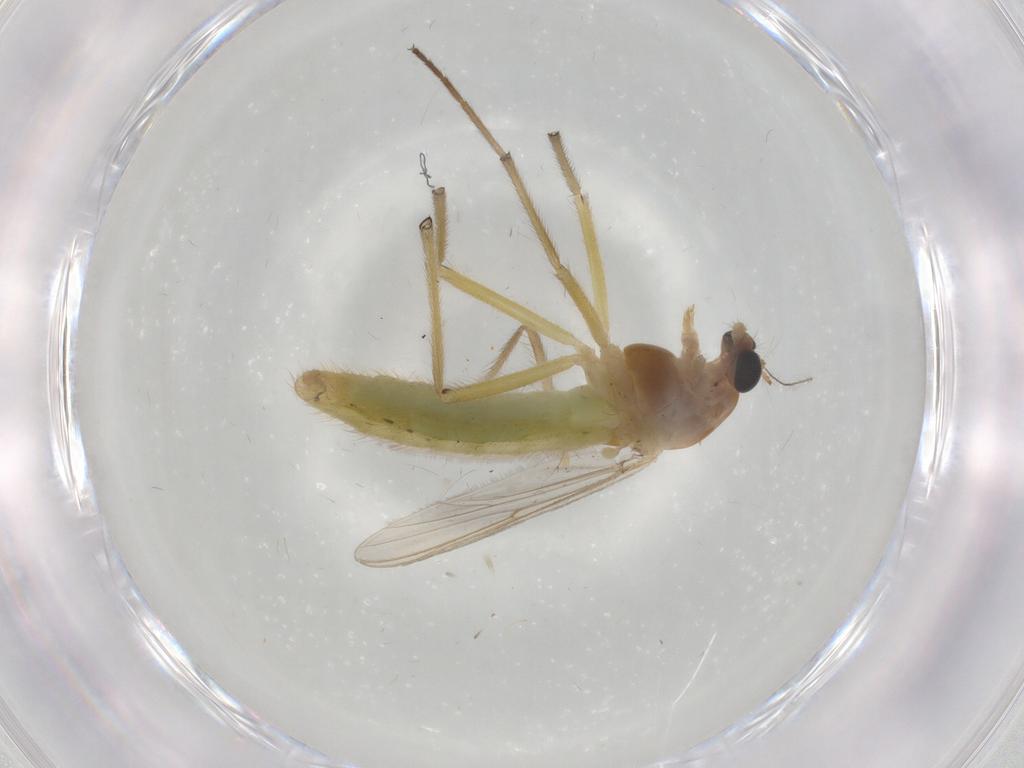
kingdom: Animalia
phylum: Arthropoda
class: Insecta
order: Diptera
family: Chironomidae
